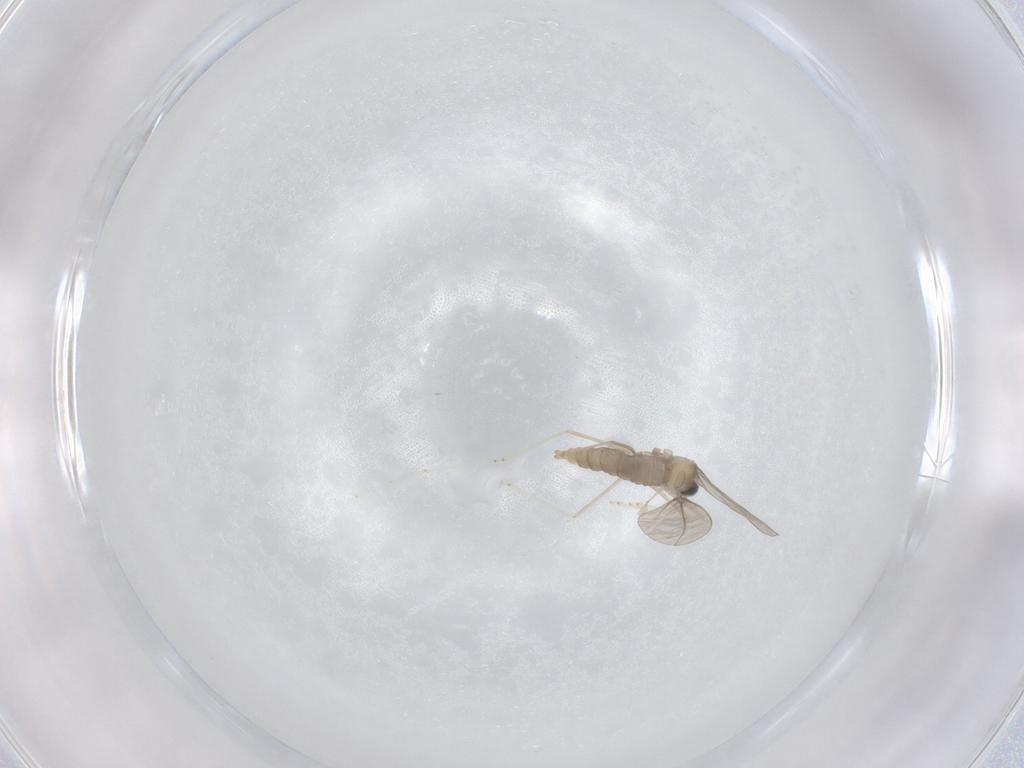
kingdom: Animalia
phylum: Arthropoda
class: Insecta
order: Diptera
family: Cecidomyiidae
